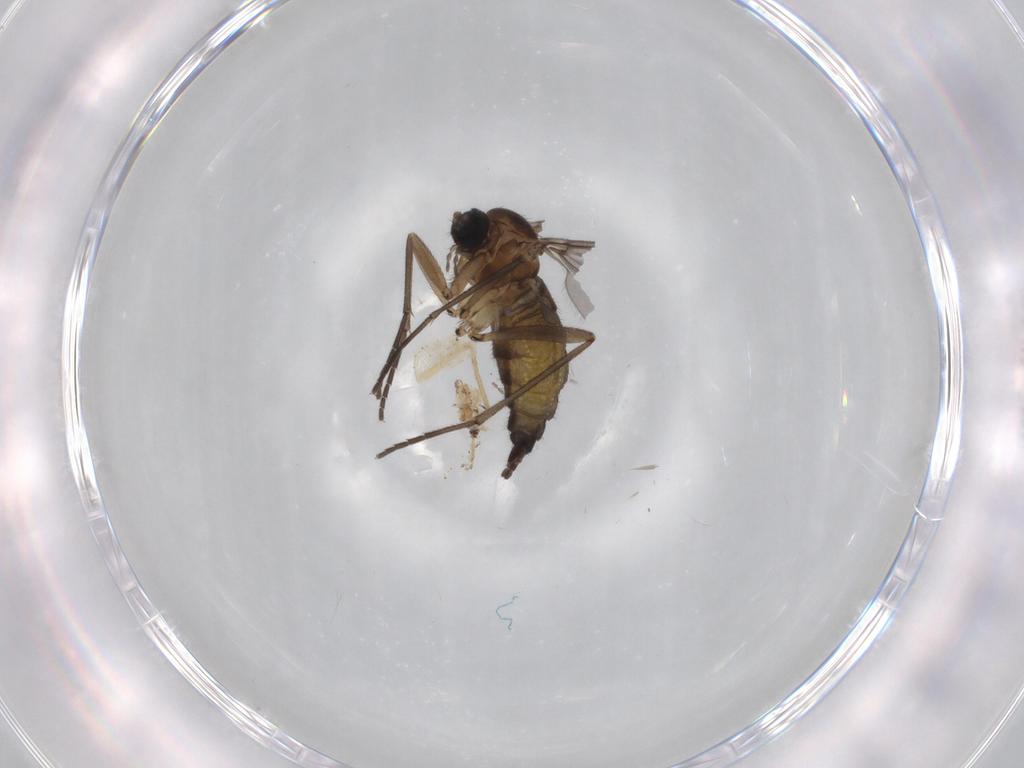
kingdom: Animalia
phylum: Arthropoda
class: Insecta
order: Diptera
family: Sciaridae
